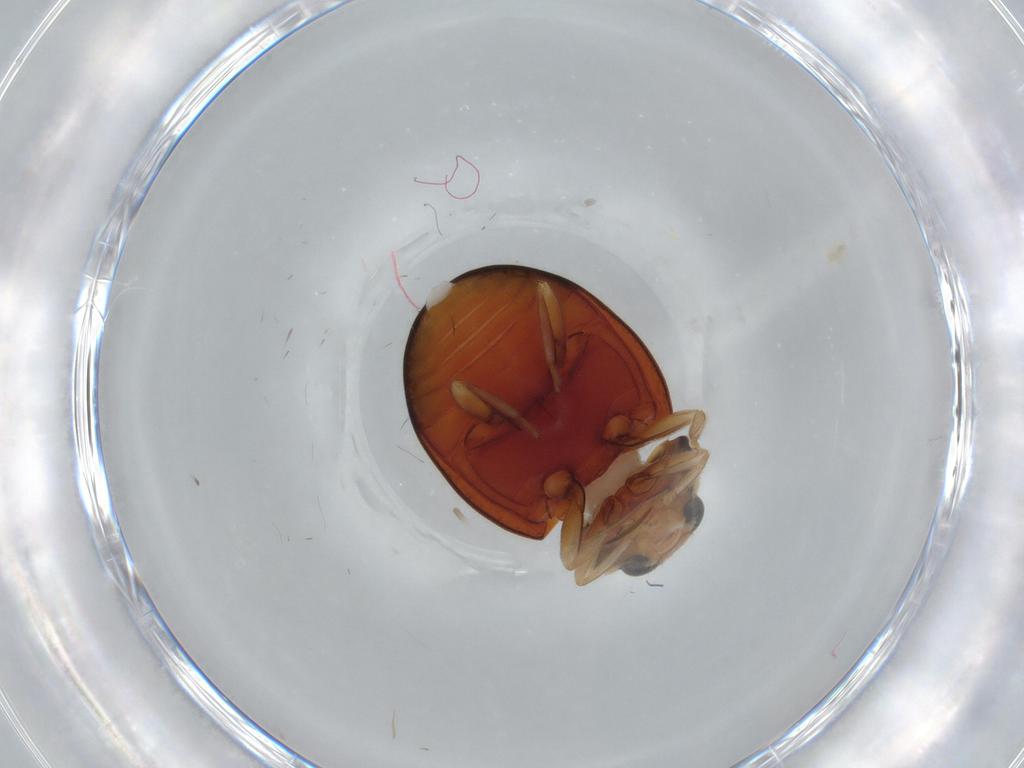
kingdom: Animalia
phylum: Arthropoda
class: Insecta
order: Coleoptera
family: Coccinellidae
